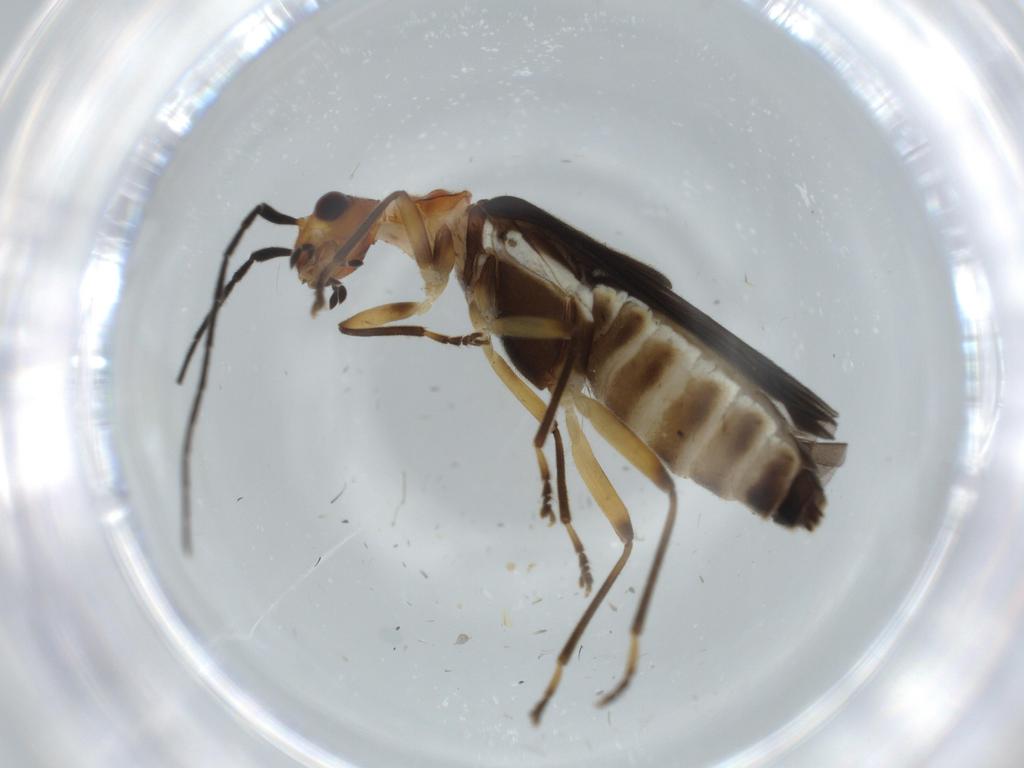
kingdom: Animalia
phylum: Arthropoda
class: Insecta
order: Coleoptera
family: Cantharidae
